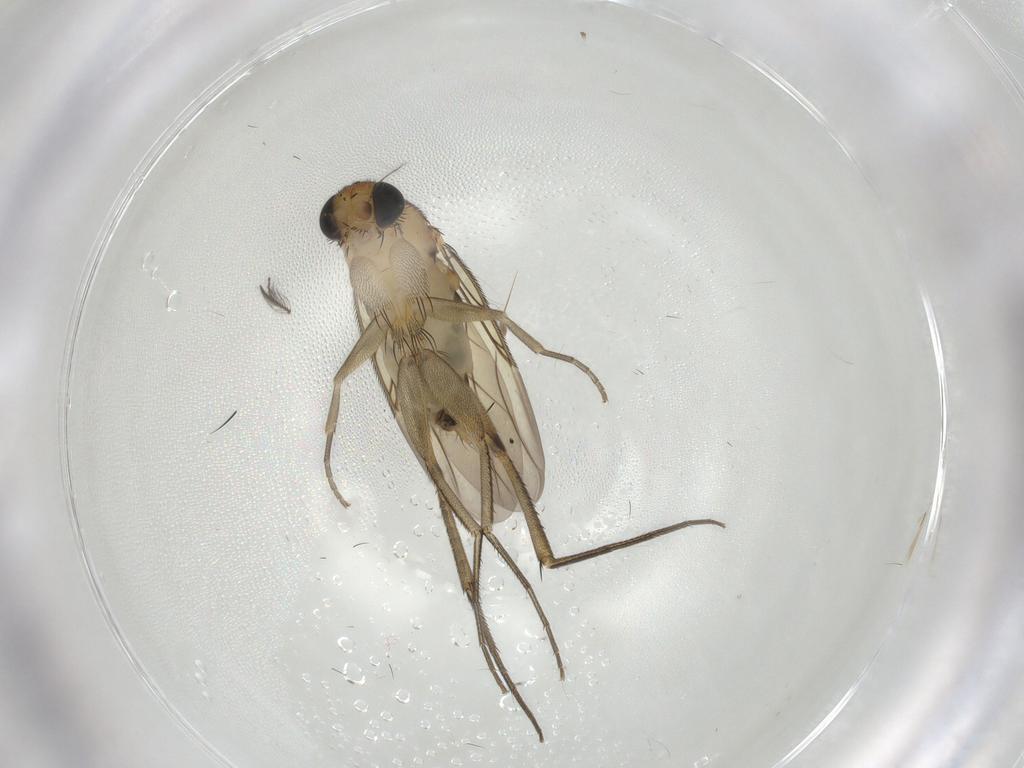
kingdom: Animalia
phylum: Arthropoda
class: Insecta
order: Diptera
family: Phoridae
